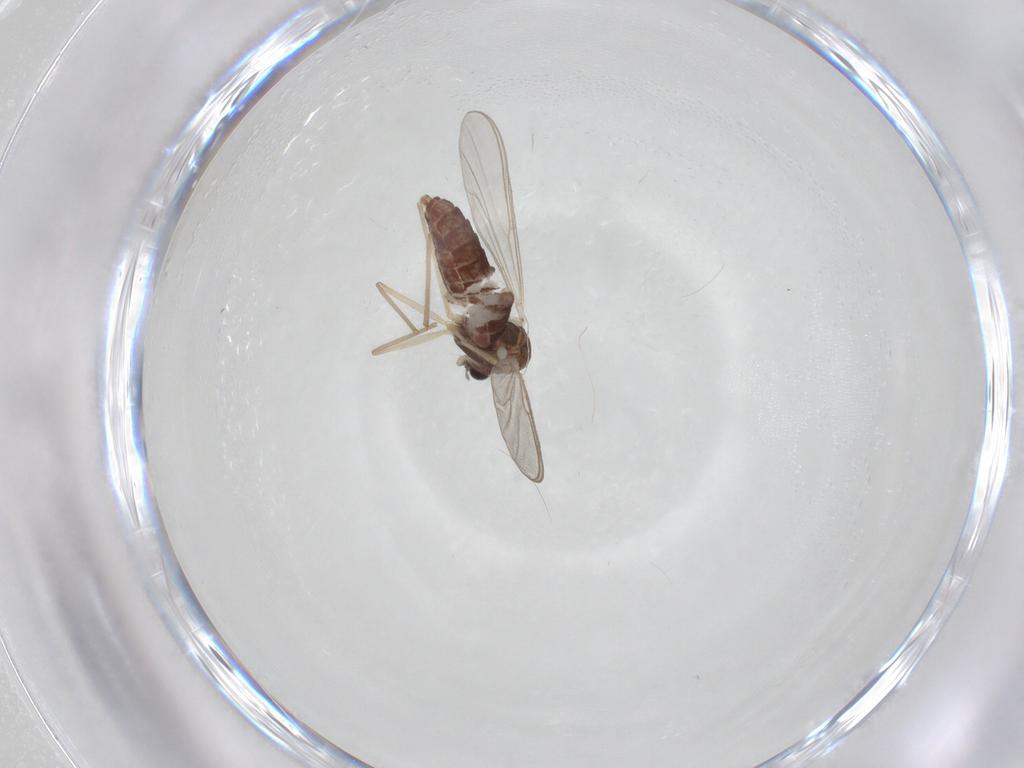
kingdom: Animalia
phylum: Arthropoda
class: Insecta
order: Diptera
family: Chironomidae
